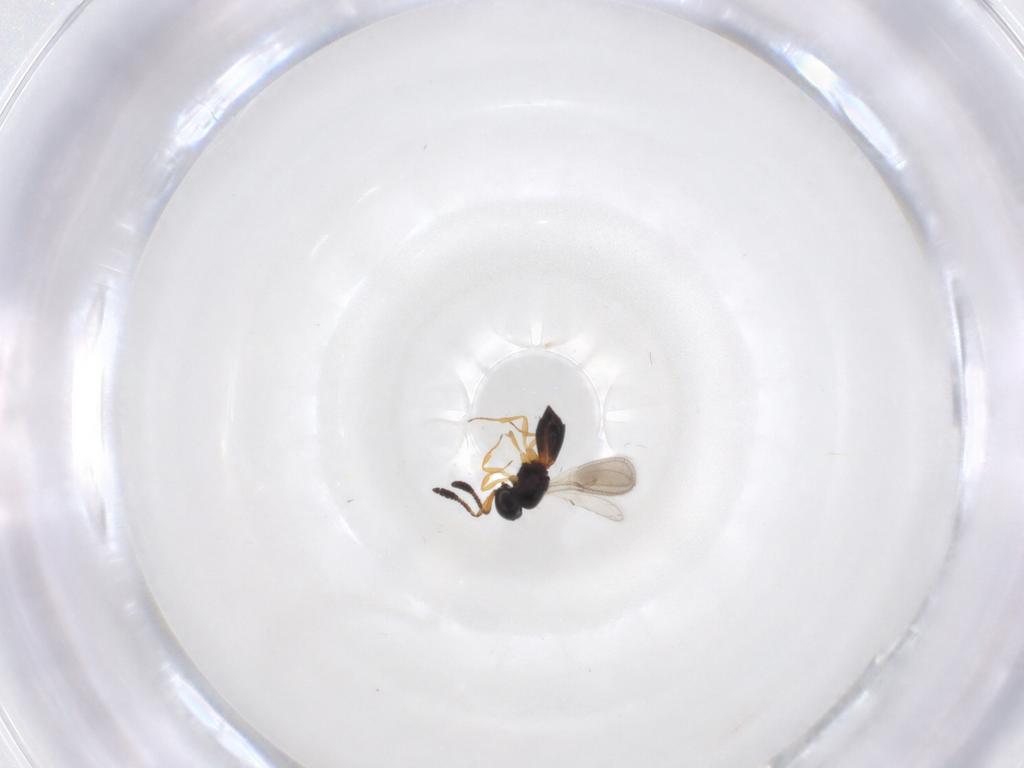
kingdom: Animalia
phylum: Arthropoda
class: Insecta
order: Hymenoptera
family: Scelionidae
